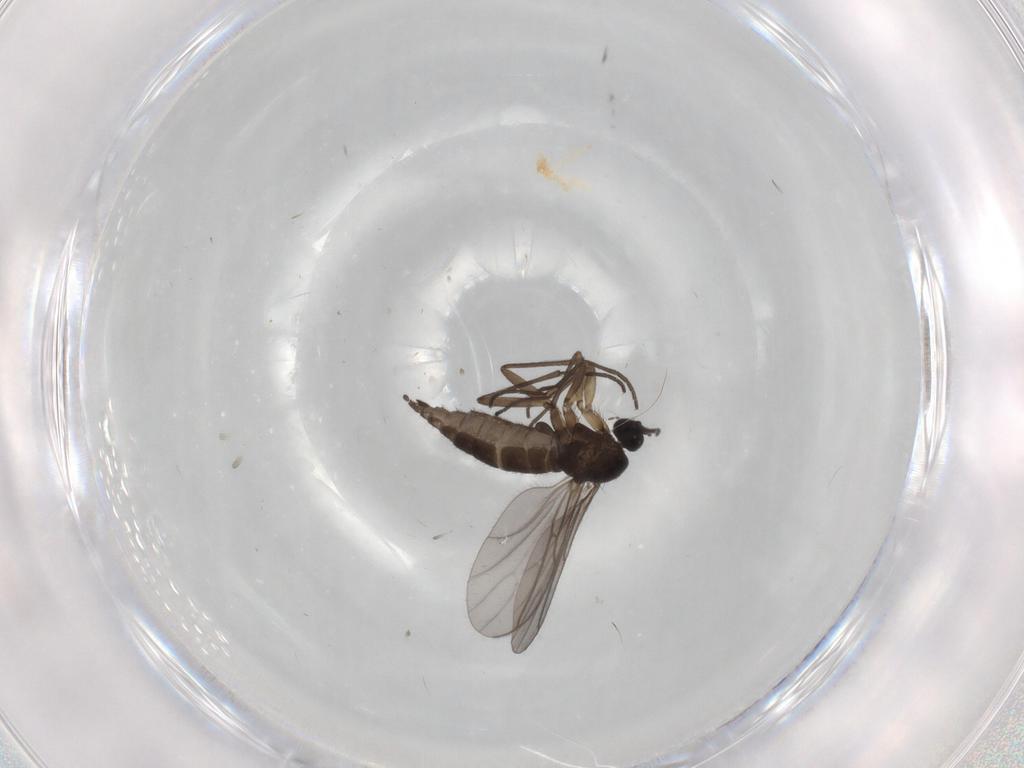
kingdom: Animalia
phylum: Arthropoda
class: Insecta
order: Diptera
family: Sciaridae
